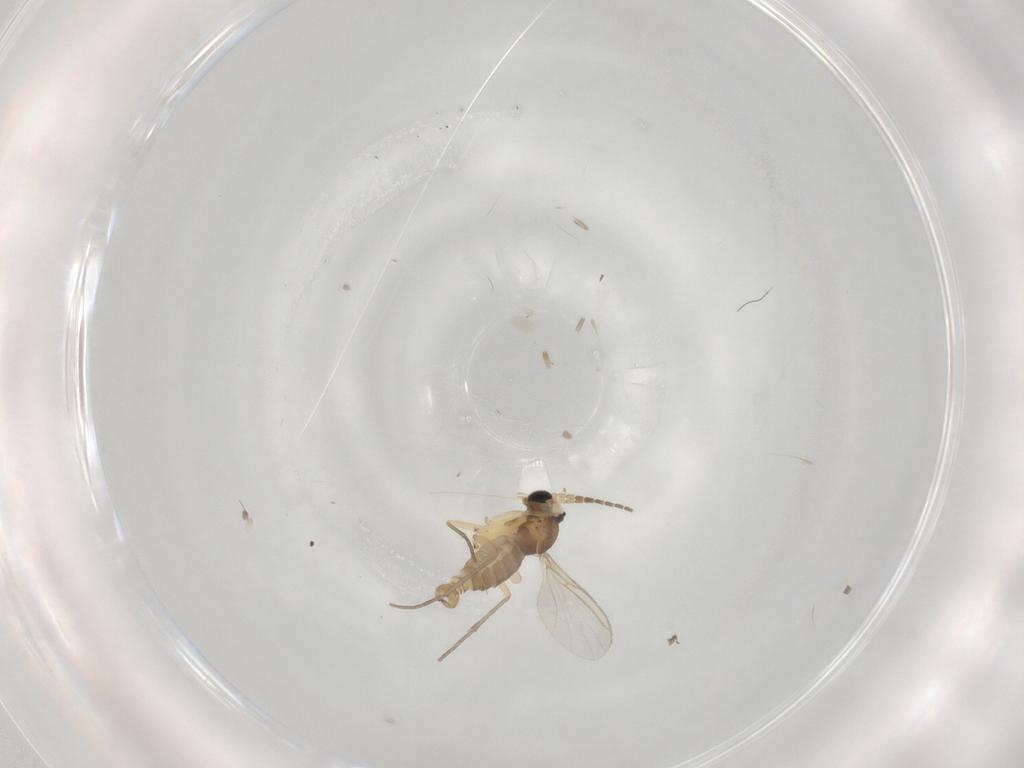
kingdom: Animalia
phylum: Arthropoda
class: Insecta
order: Diptera
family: Sciaridae
